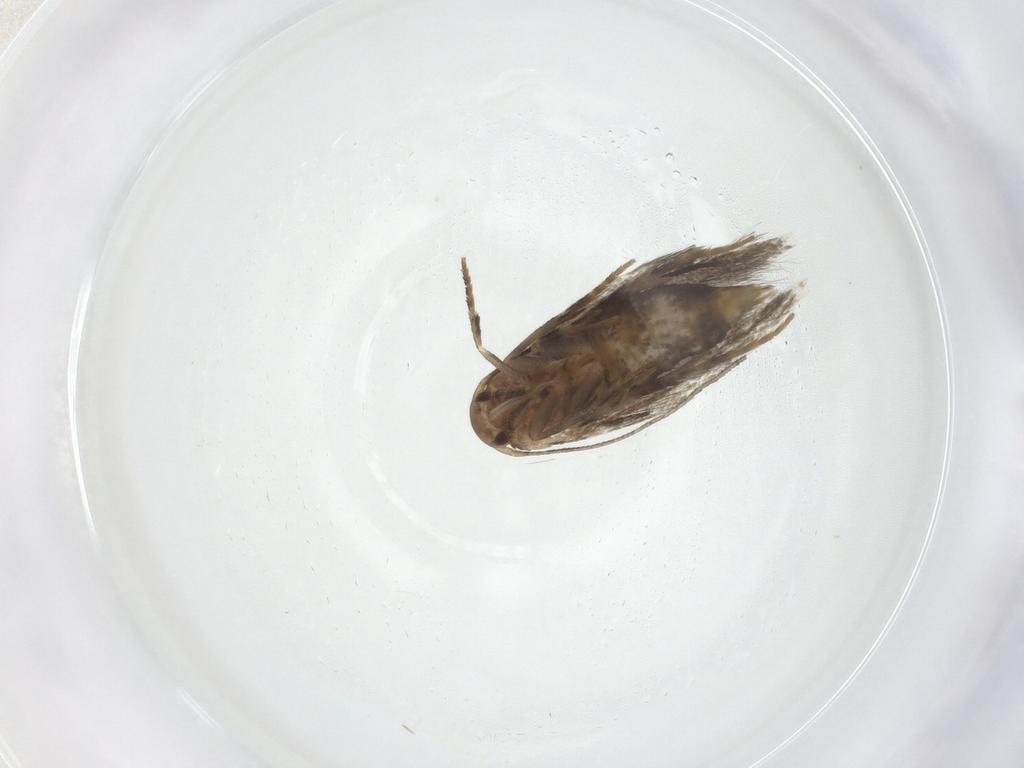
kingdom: Animalia
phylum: Arthropoda
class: Insecta
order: Lepidoptera
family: Elachistidae
